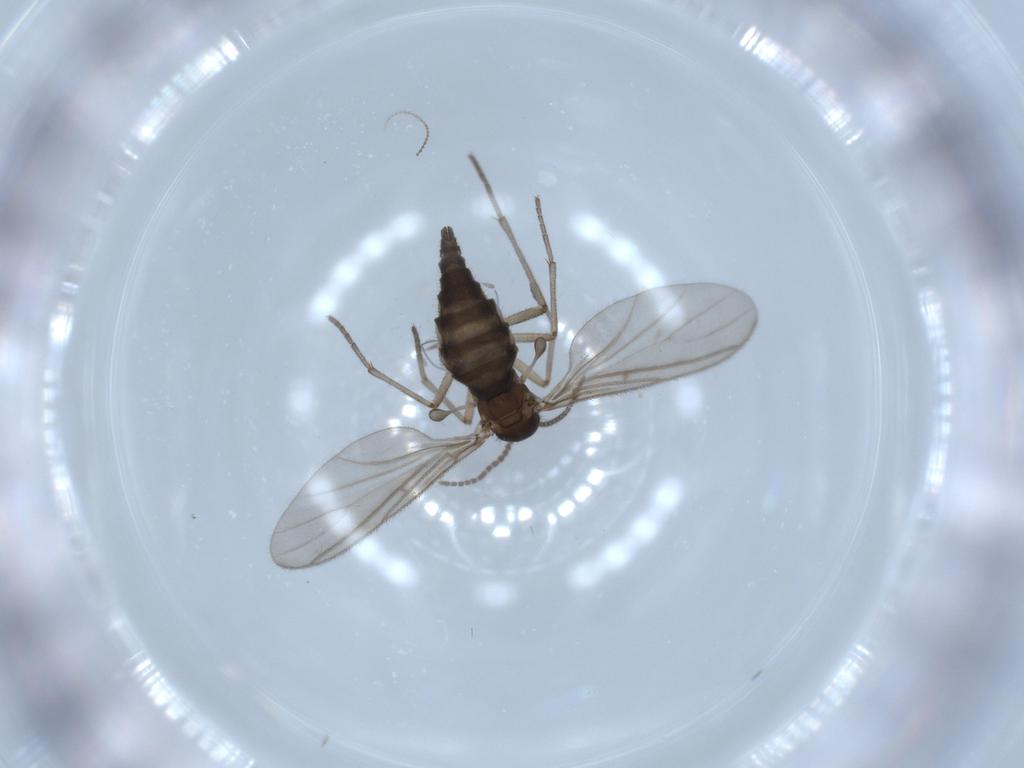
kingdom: Animalia
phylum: Arthropoda
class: Insecta
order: Diptera
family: Sciaridae
